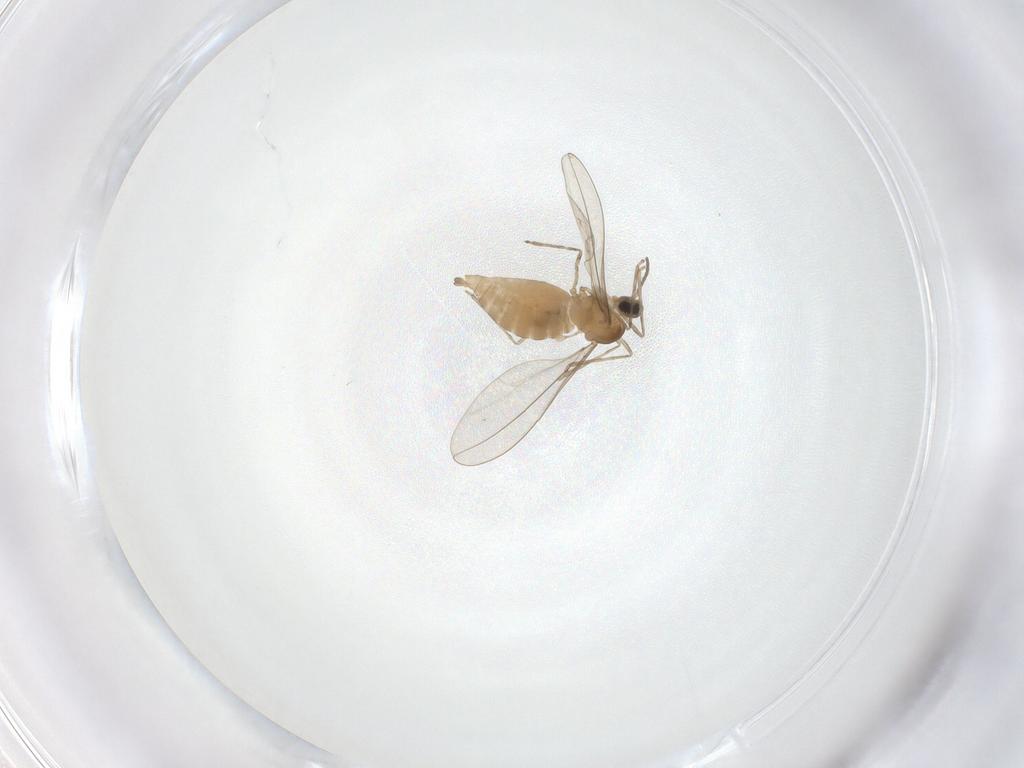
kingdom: Animalia
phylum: Arthropoda
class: Insecta
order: Diptera
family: Cecidomyiidae
